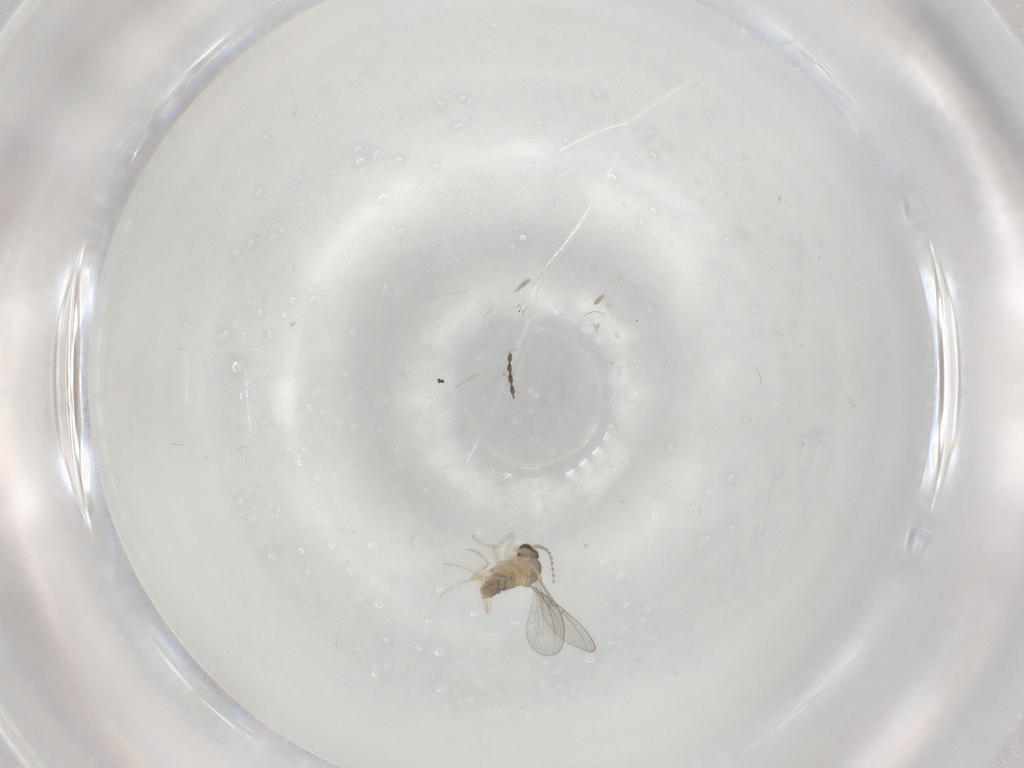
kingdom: Animalia
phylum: Arthropoda
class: Insecta
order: Diptera
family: Cecidomyiidae
